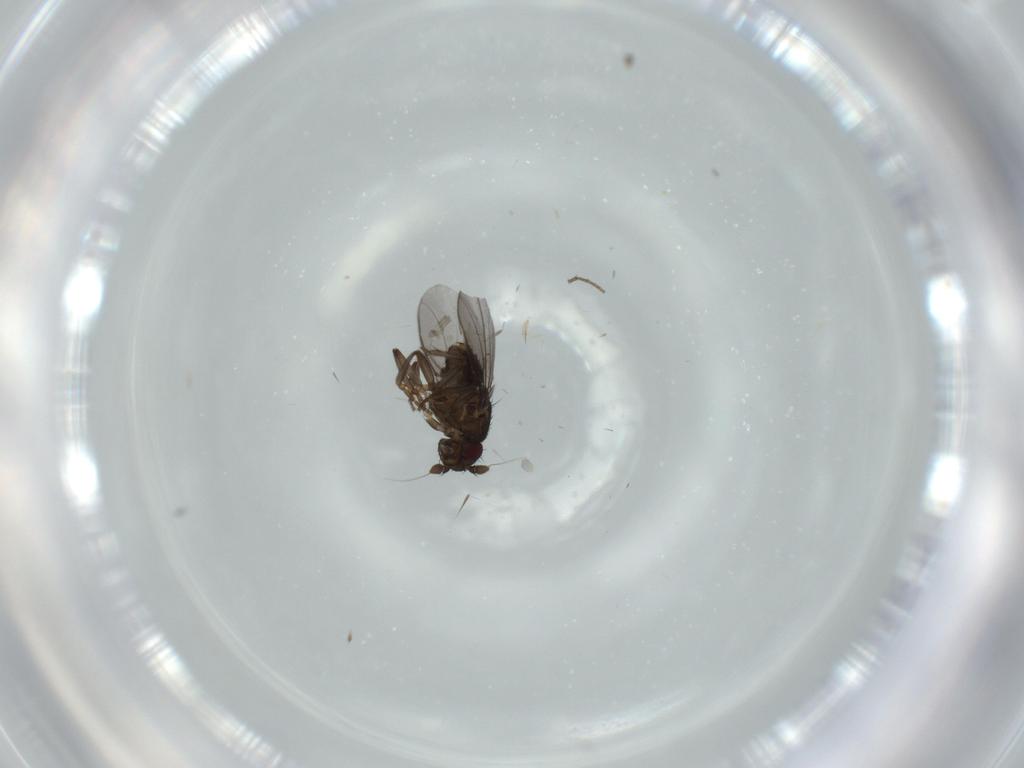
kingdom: Animalia
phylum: Arthropoda
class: Insecta
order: Diptera
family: Sphaeroceridae
